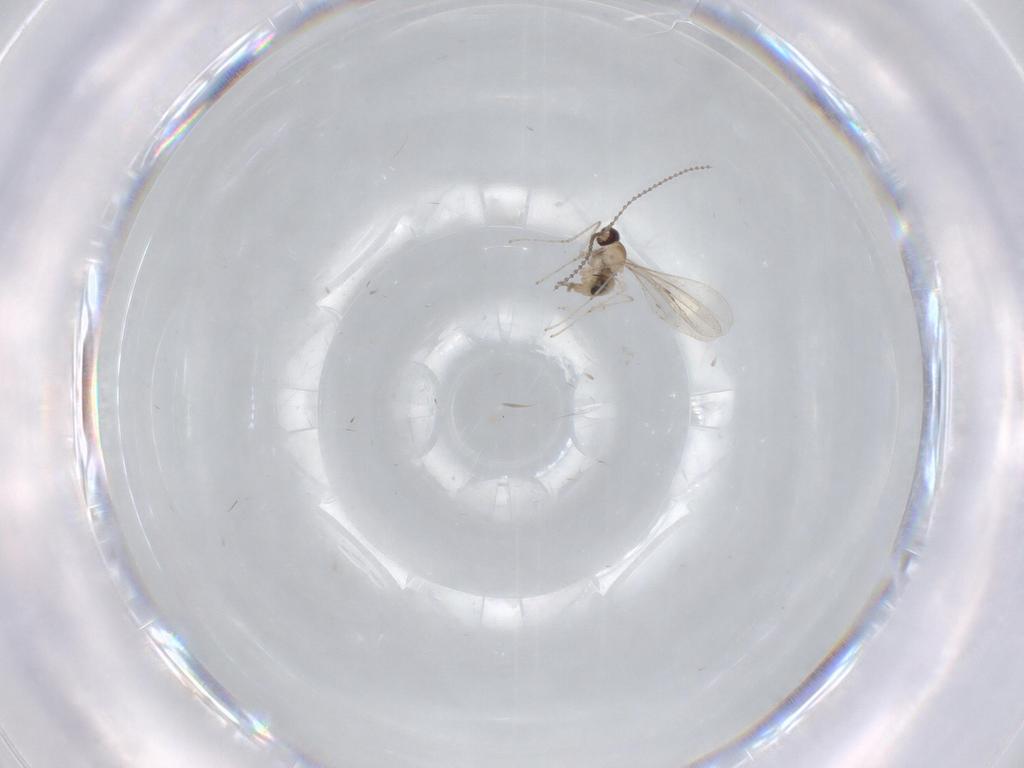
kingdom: Animalia
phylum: Arthropoda
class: Insecta
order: Diptera
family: Cecidomyiidae
